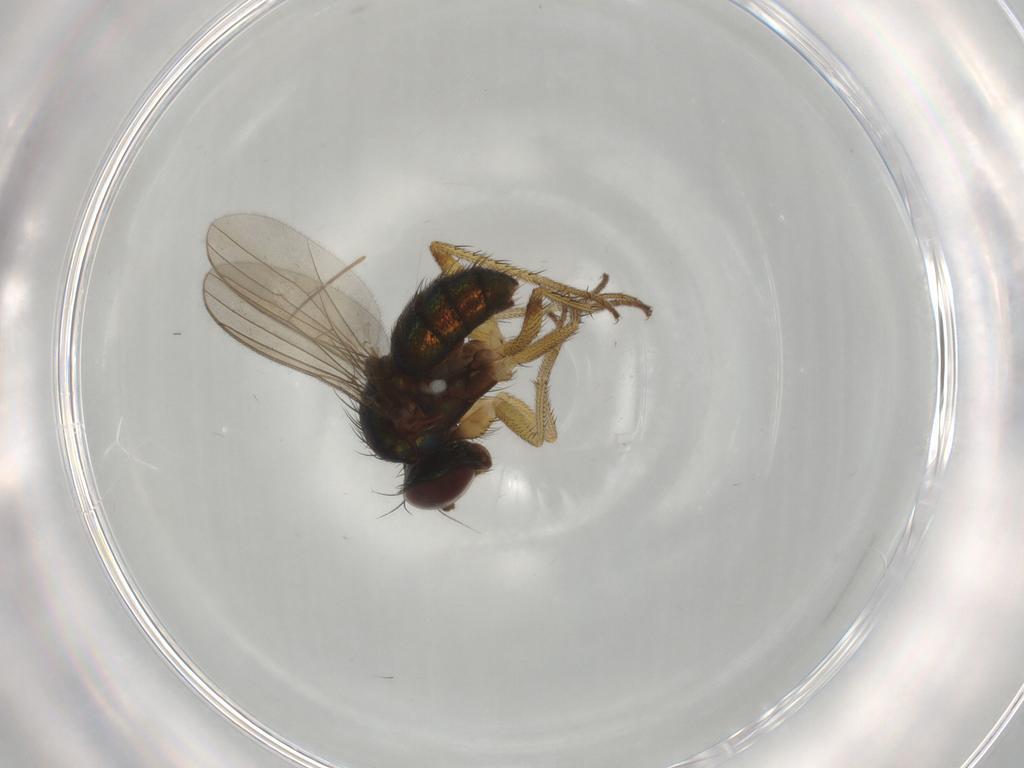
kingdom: Animalia
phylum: Arthropoda
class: Insecta
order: Diptera
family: Dolichopodidae
